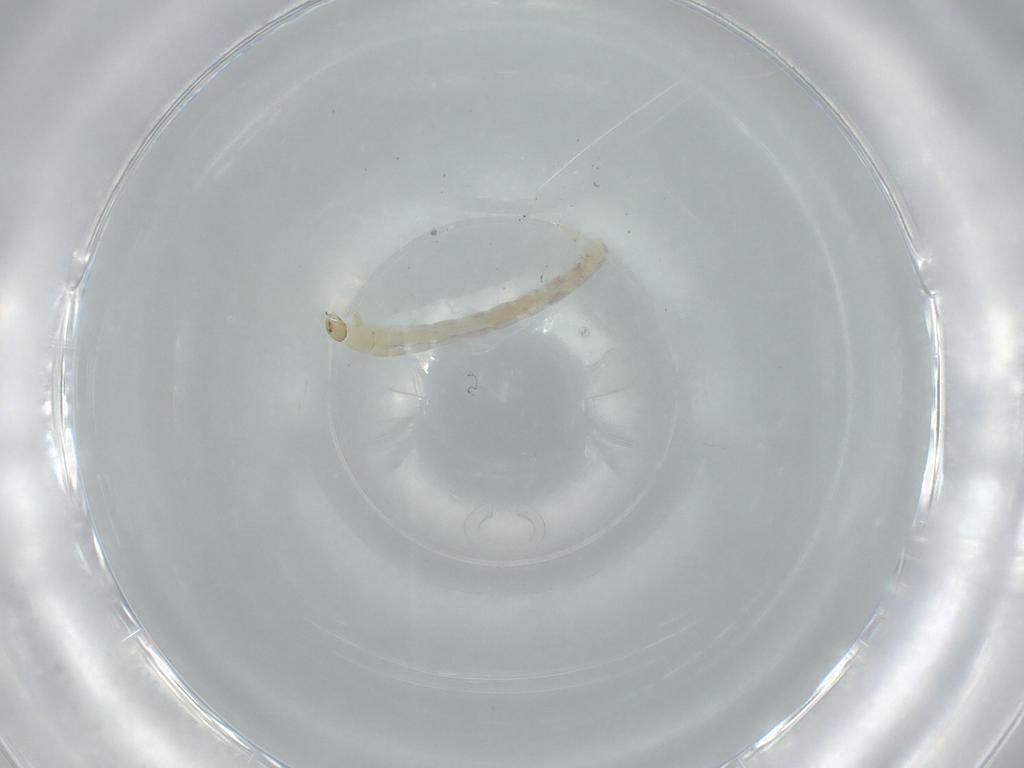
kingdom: Animalia
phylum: Arthropoda
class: Insecta
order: Diptera
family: Chironomidae
